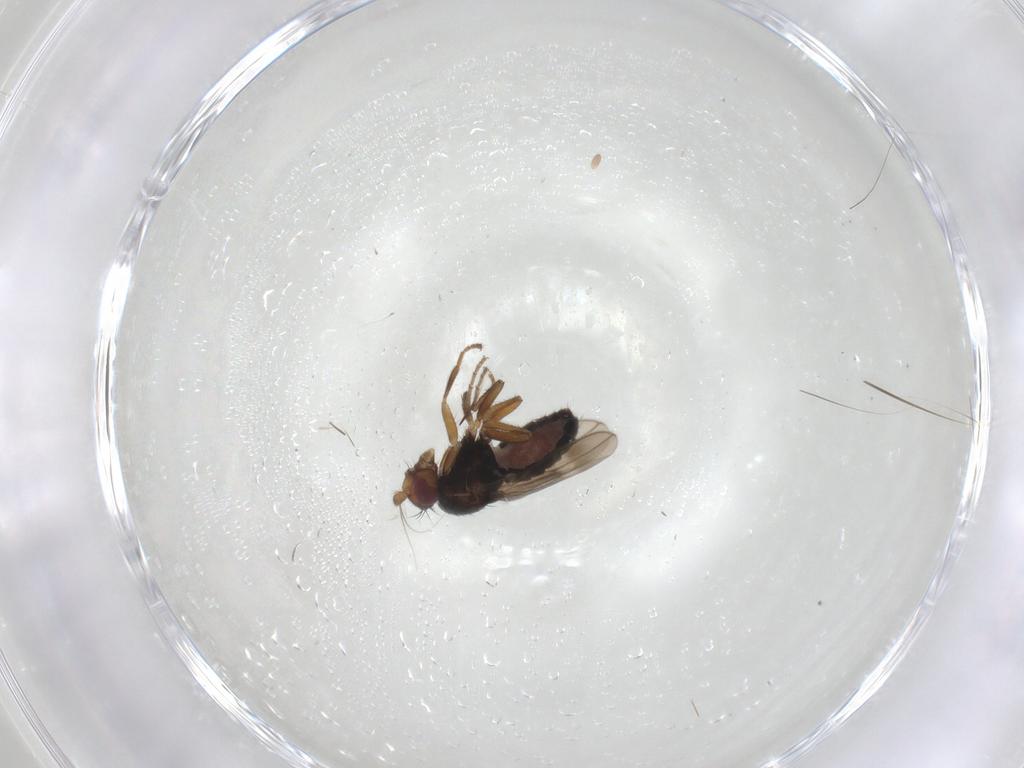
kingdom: Animalia
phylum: Arthropoda
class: Insecta
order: Diptera
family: Sphaeroceridae
